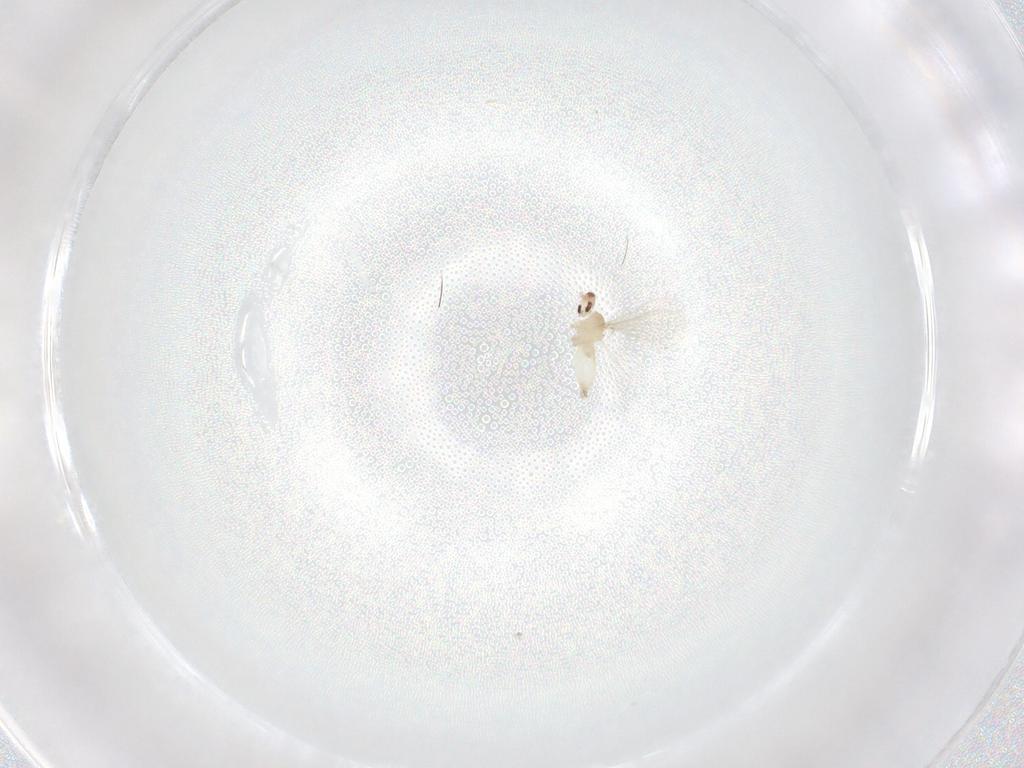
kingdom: Animalia
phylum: Arthropoda
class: Insecta
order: Diptera
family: Cecidomyiidae
